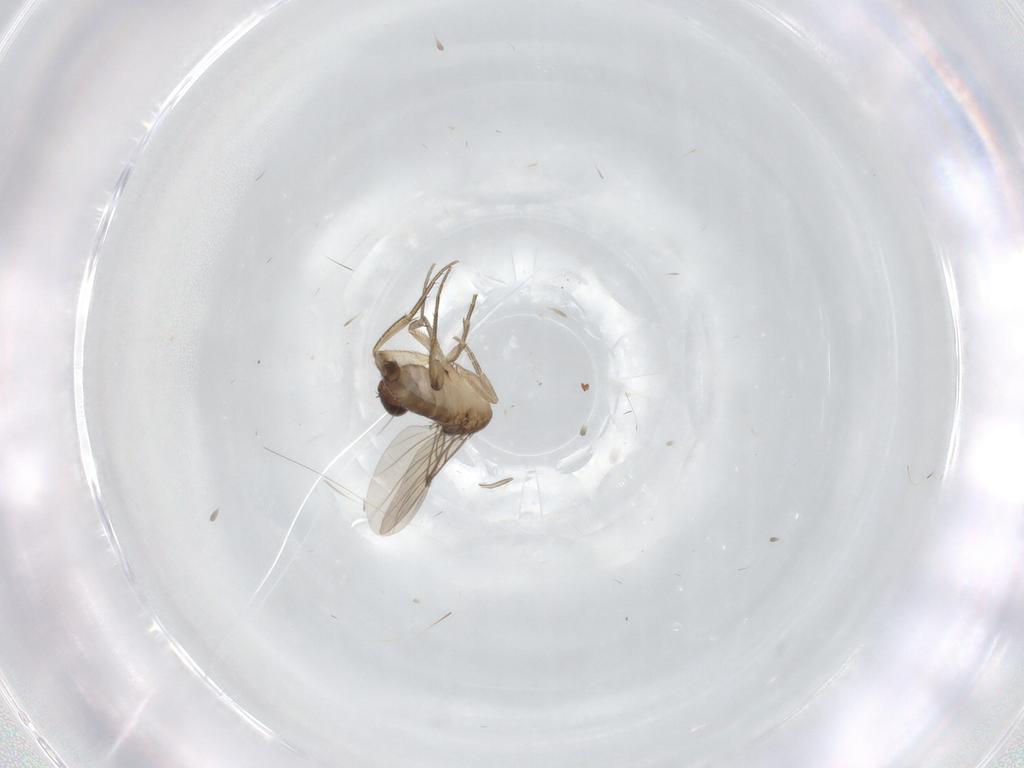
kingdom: Animalia
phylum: Arthropoda
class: Insecta
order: Diptera
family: Phoridae
